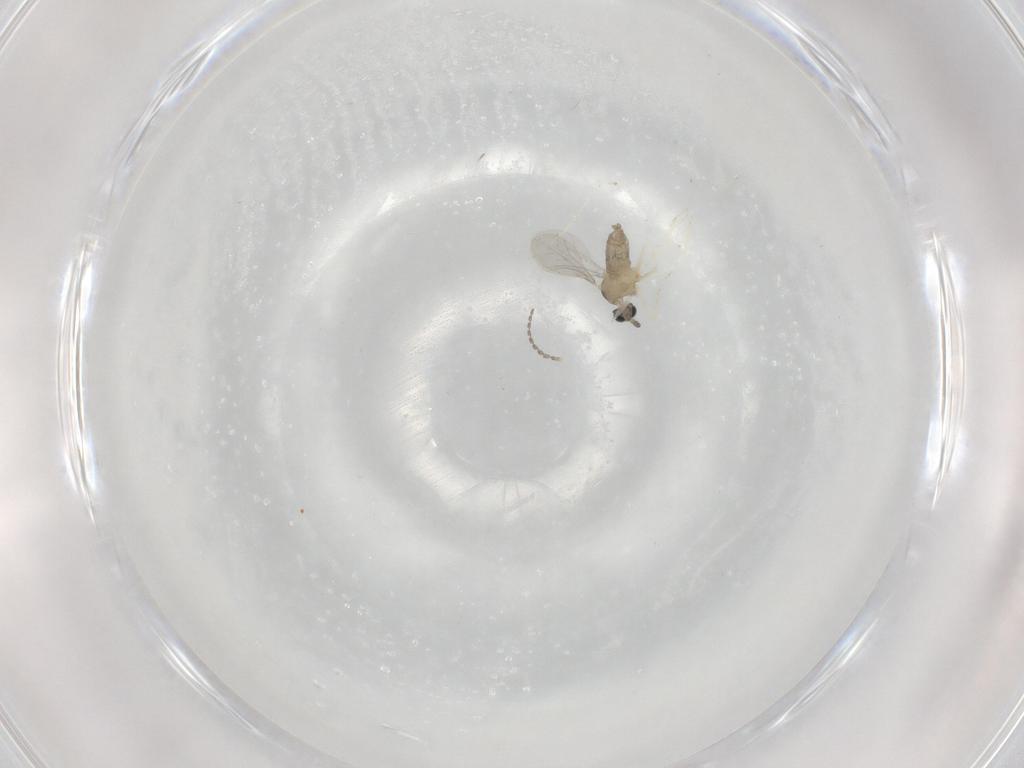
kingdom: Animalia
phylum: Arthropoda
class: Insecta
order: Diptera
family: Cecidomyiidae
